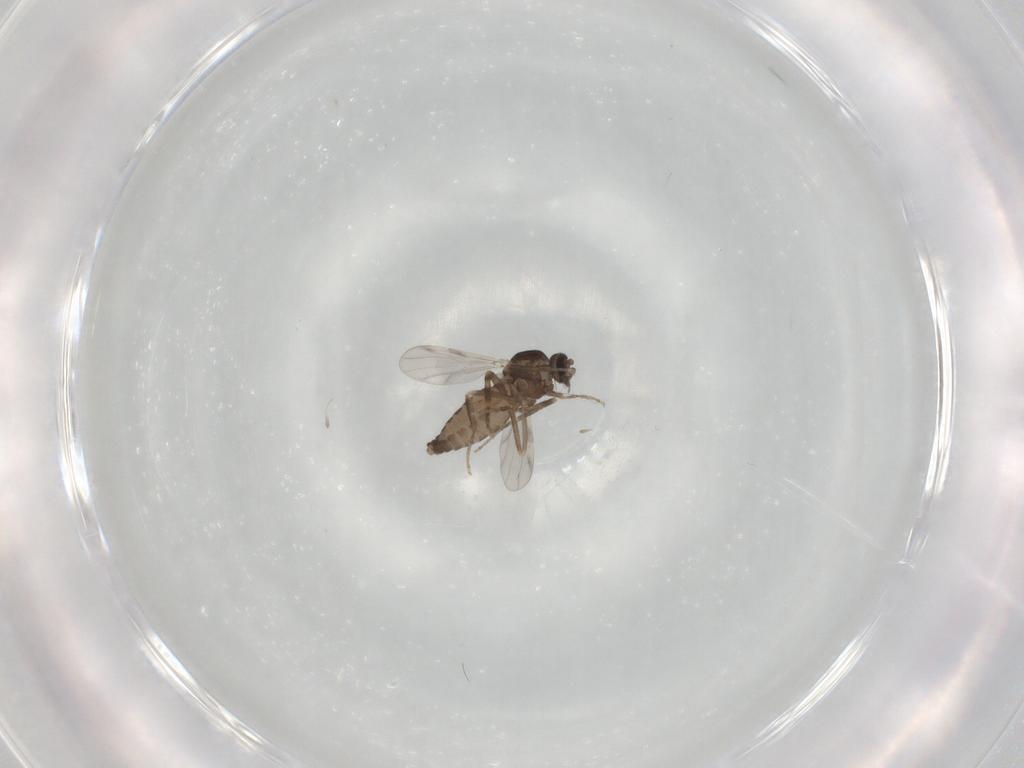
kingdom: Animalia
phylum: Arthropoda
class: Insecta
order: Diptera
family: Ceratopogonidae
